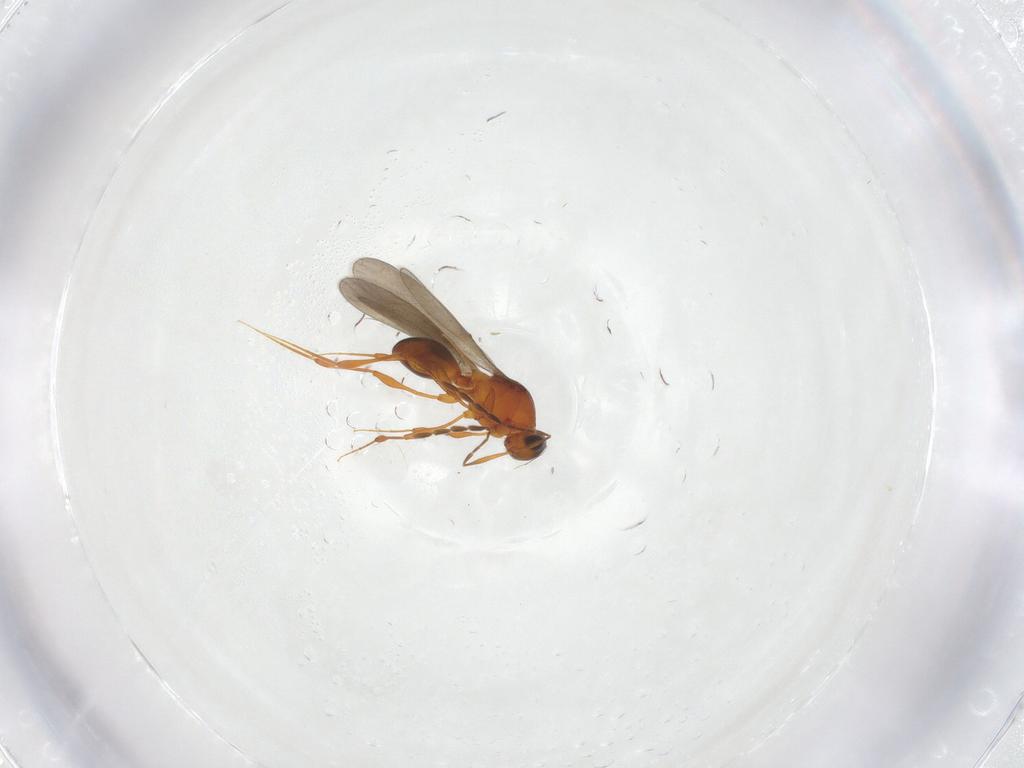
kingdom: Animalia
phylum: Arthropoda
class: Insecta
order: Hymenoptera
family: Platygastridae
